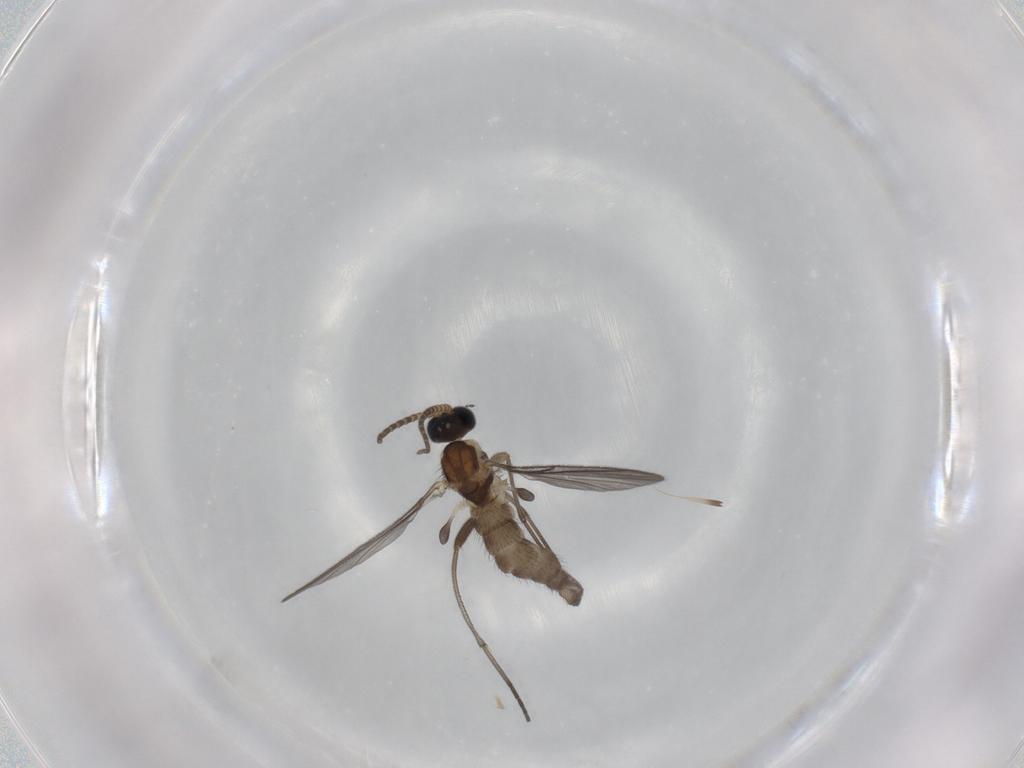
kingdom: Animalia
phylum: Arthropoda
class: Insecta
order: Diptera
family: Sciaridae
